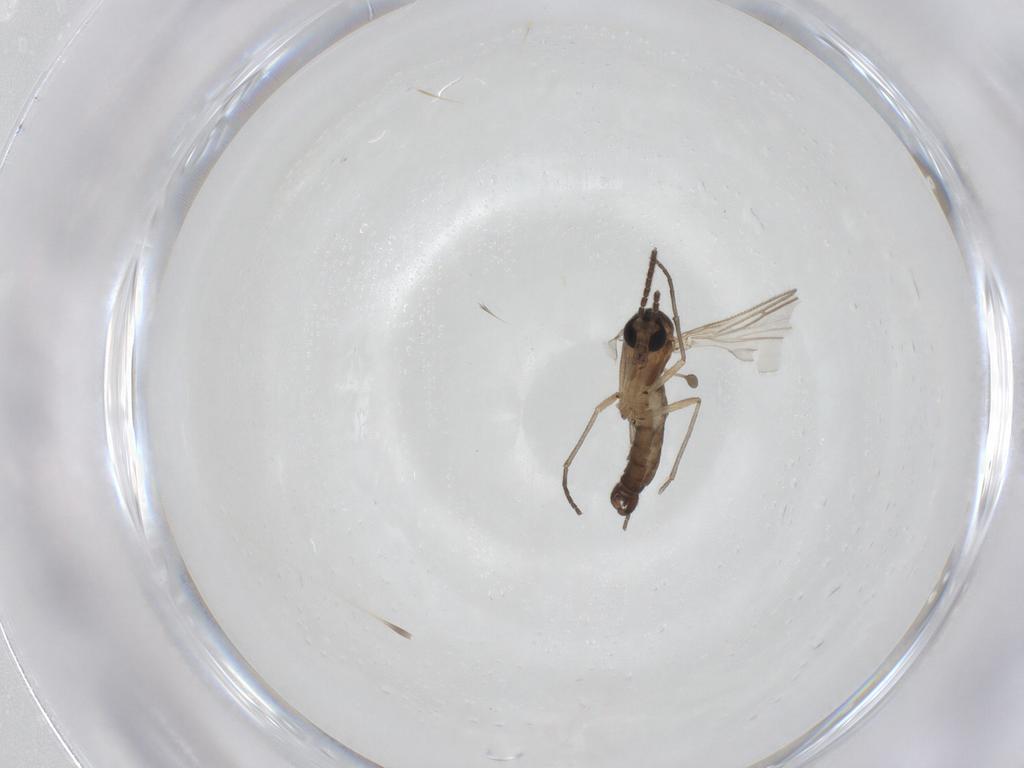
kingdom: Animalia
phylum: Arthropoda
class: Insecta
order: Diptera
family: Sciaridae
